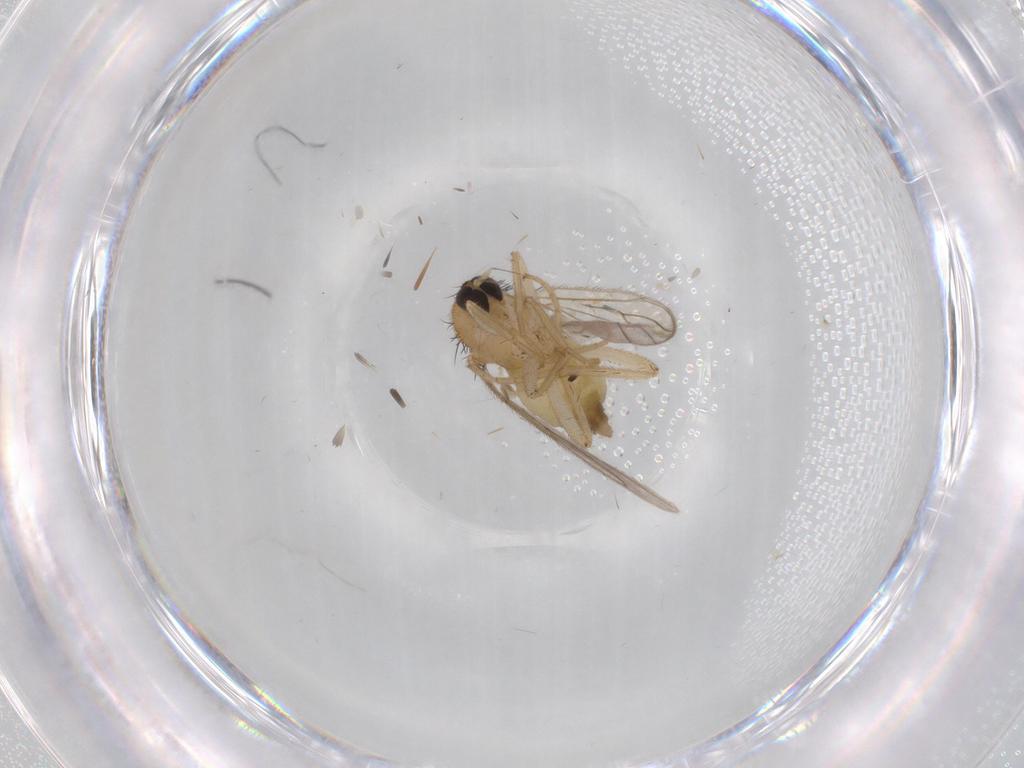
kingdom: Animalia
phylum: Arthropoda
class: Insecta
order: Diptera
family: Hybotidae
